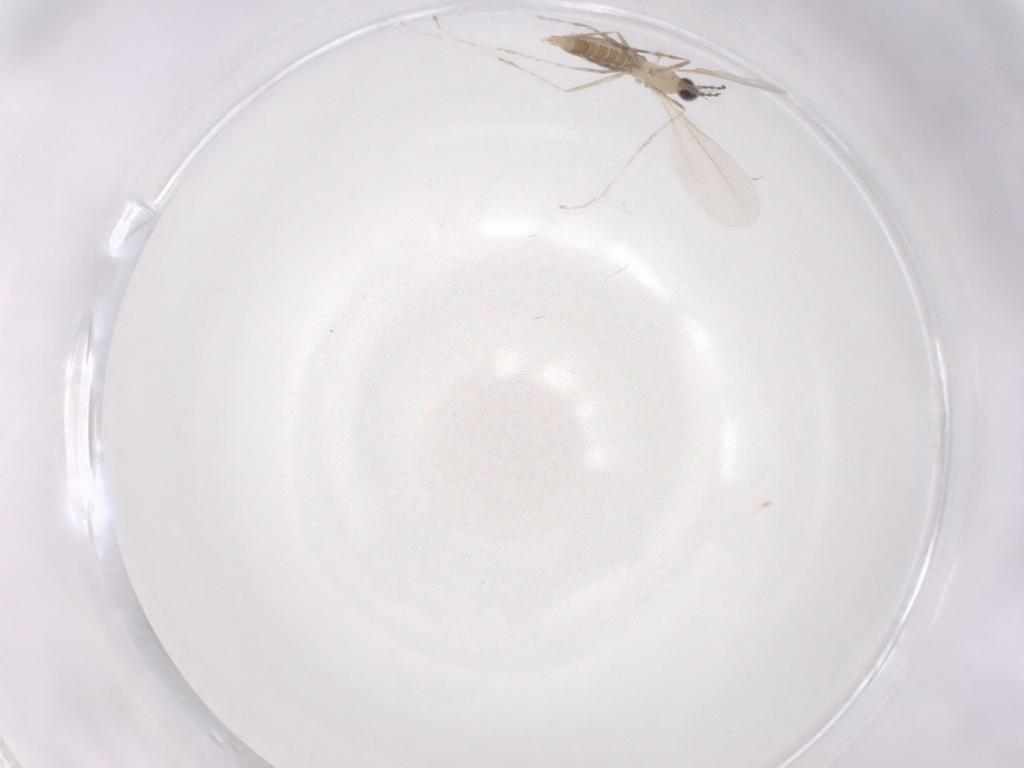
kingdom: Animalia
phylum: Arthropoda
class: Insecta
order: Diptera
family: Cecidomyiidae
